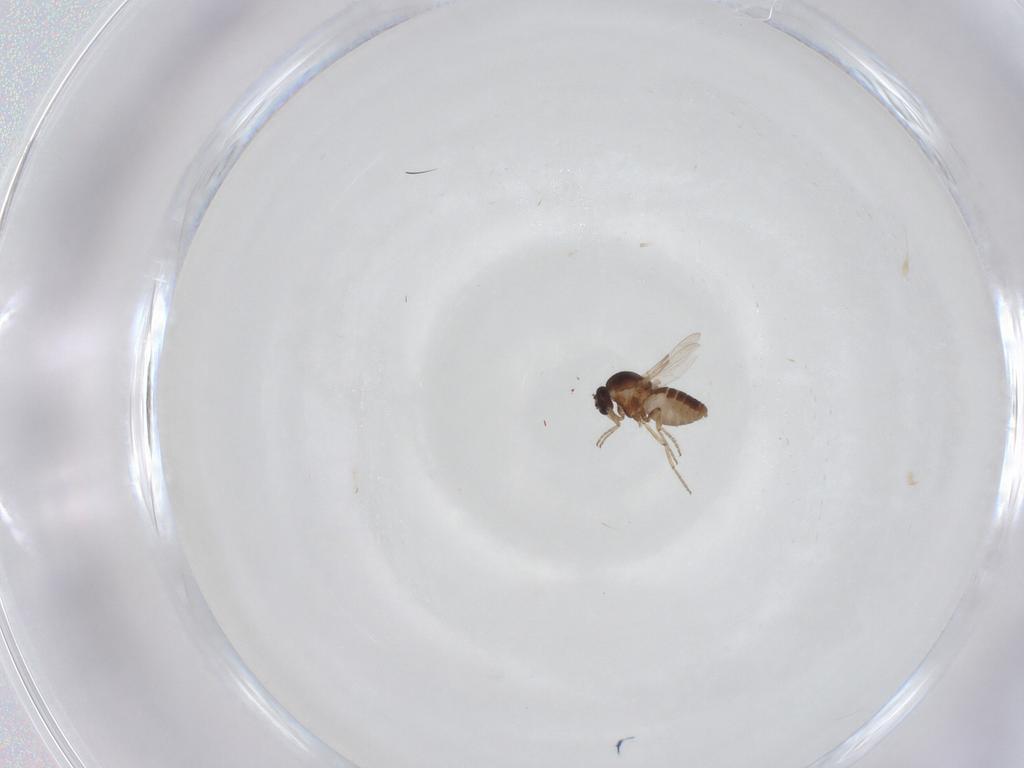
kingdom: Animalia
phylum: Arthropoda
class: Insecta
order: Diptera
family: Ceratopogonidae
